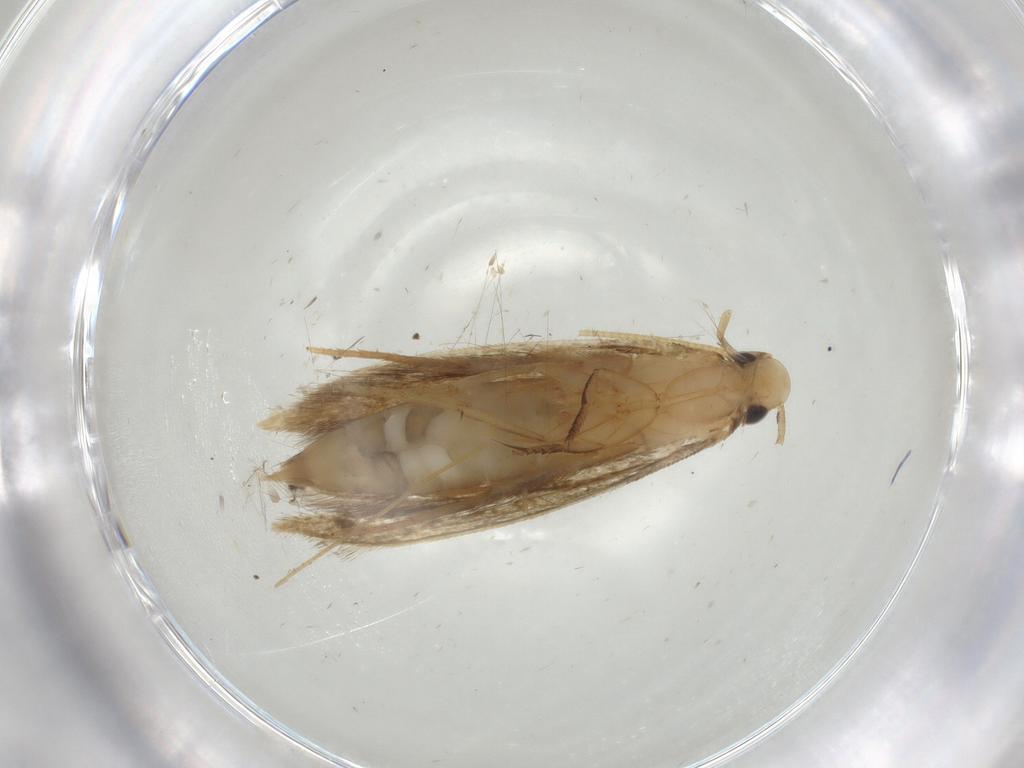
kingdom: Animalia
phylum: Arthropoda
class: Insecta
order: Lepidoptera
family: Tineidae
